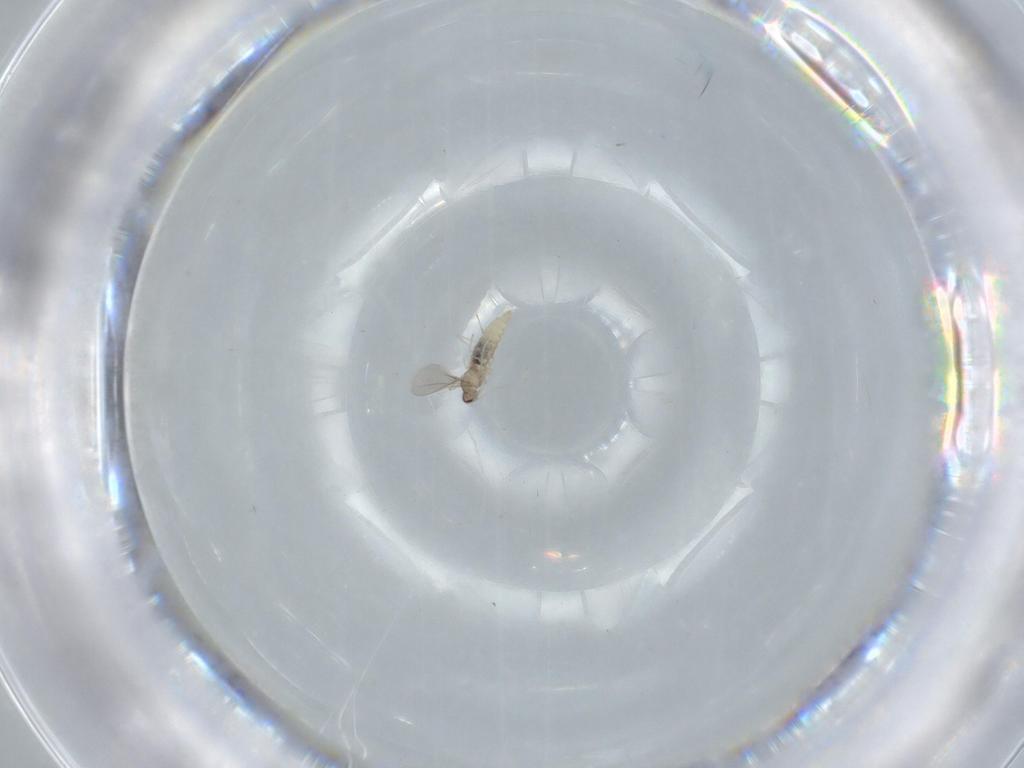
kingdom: Animalia
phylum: Arthropoda
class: Insecta
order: Diptera
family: Cecidomyiidae
